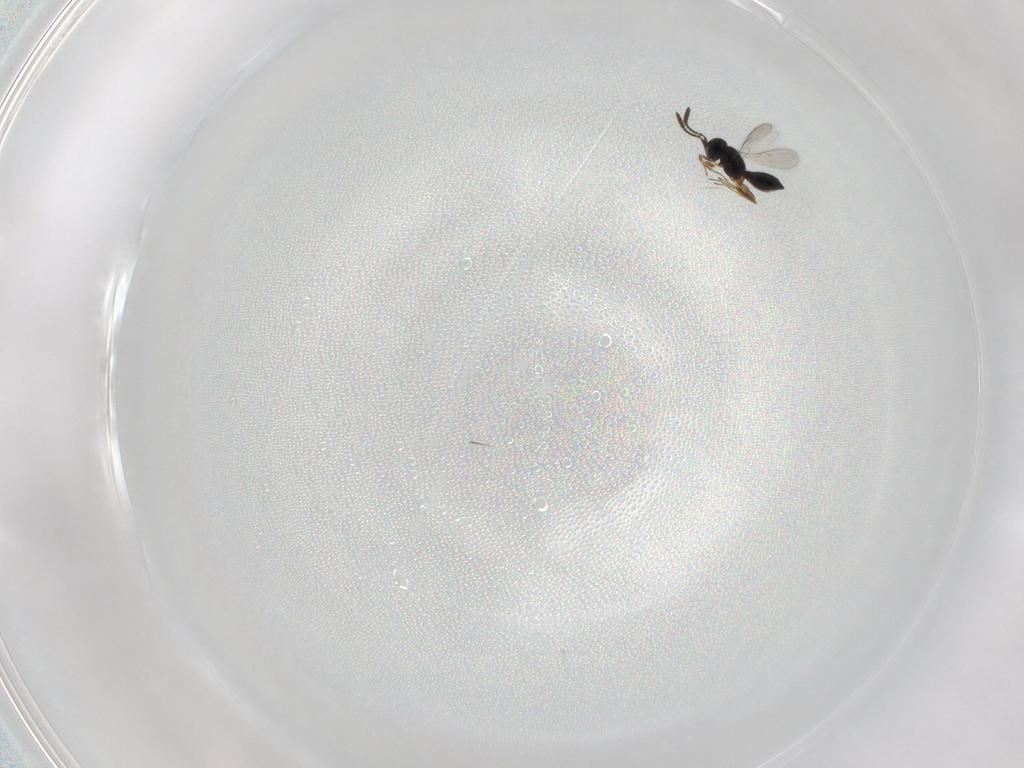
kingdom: Animalia
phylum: Arthropoda
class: Insecta
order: Hymenoptera
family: Scelionidae
